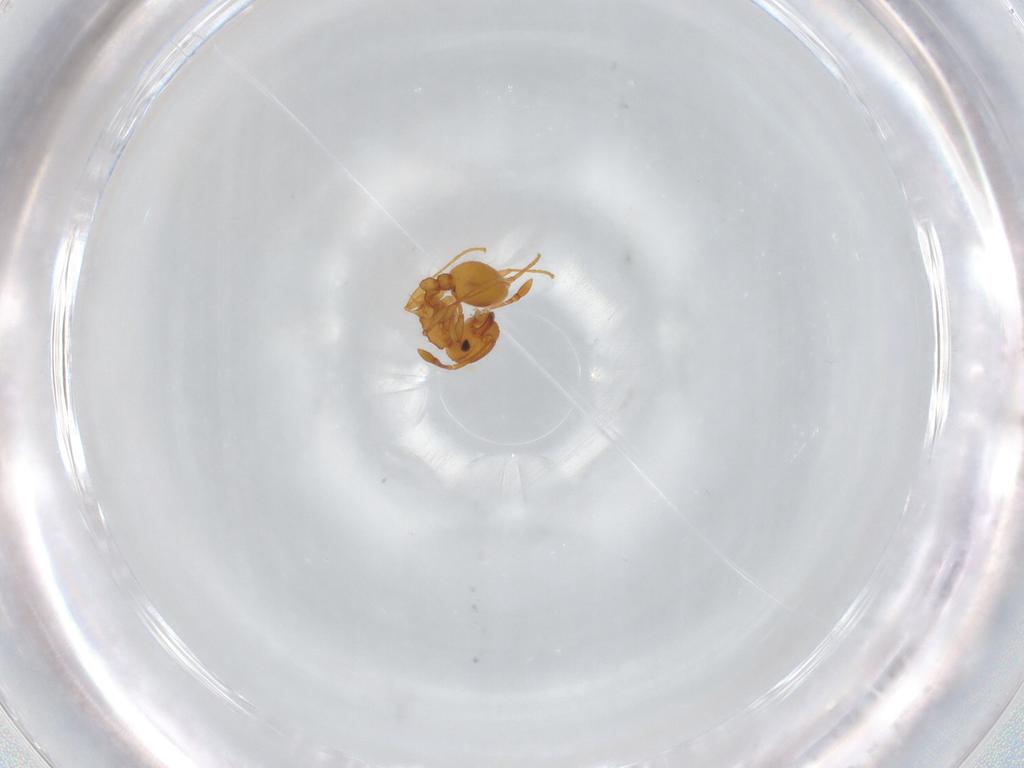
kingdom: Animalia
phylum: Arthropoda
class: Insecta
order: Hymenoptera
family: Formicidae
